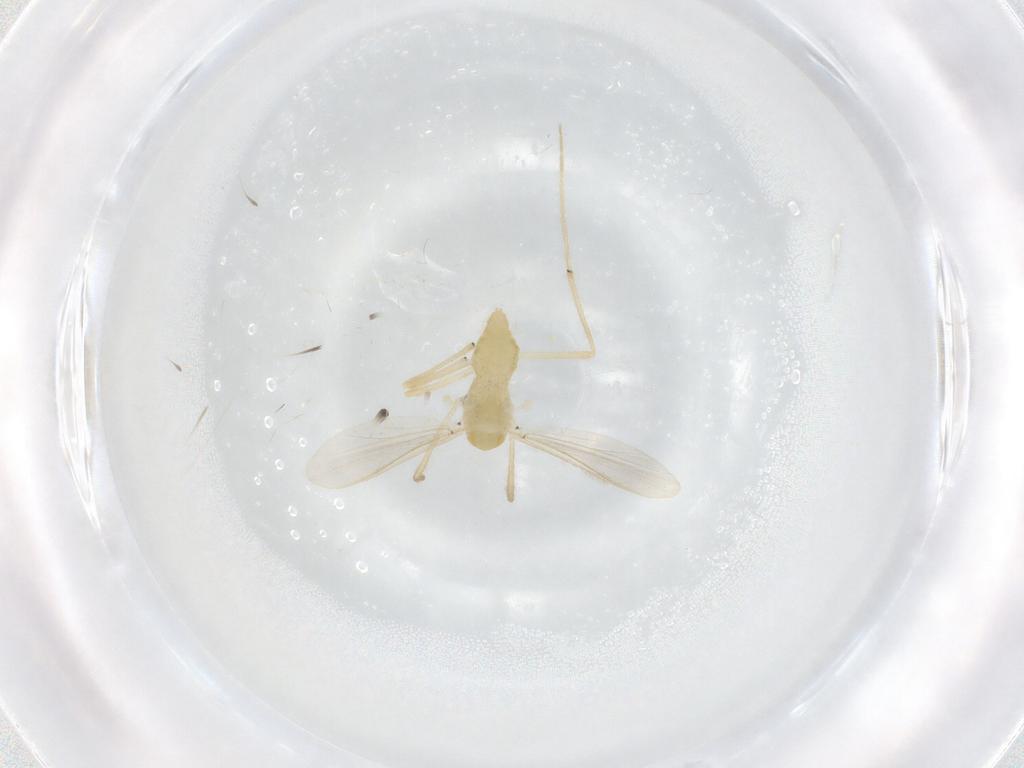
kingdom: Animalia
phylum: Arthropoda
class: Insecta
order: Diptera
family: Chironomidae
